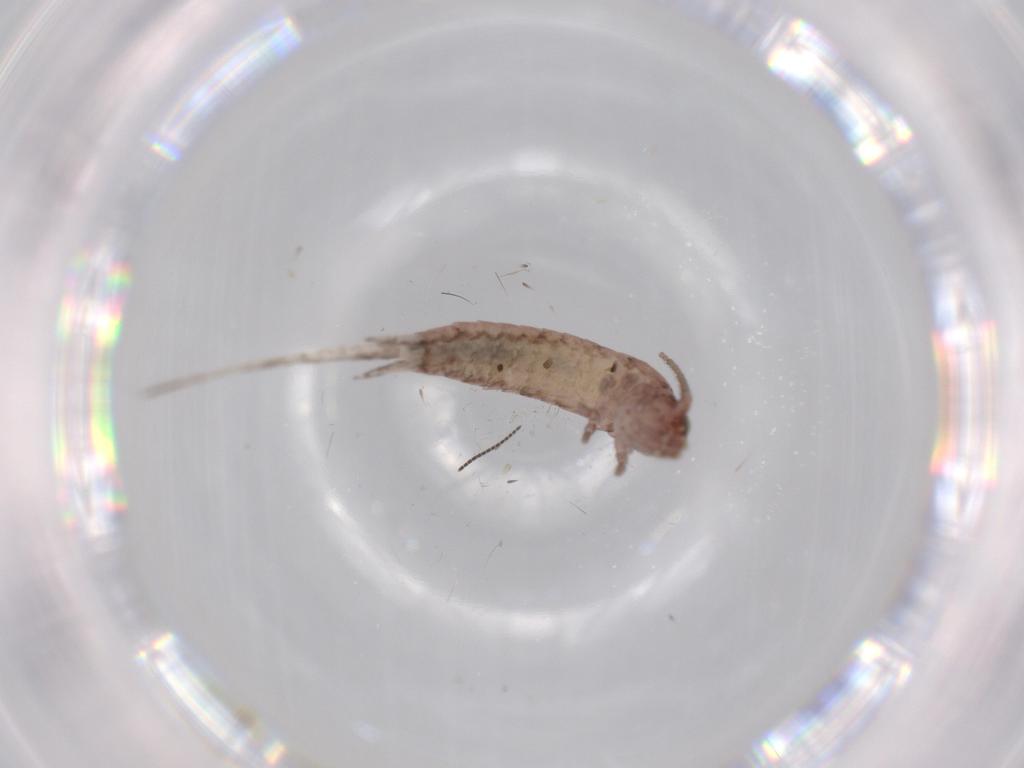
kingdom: Animalia
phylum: Arthropoda
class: Insecta
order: Archaeognatha
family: Machilidae
